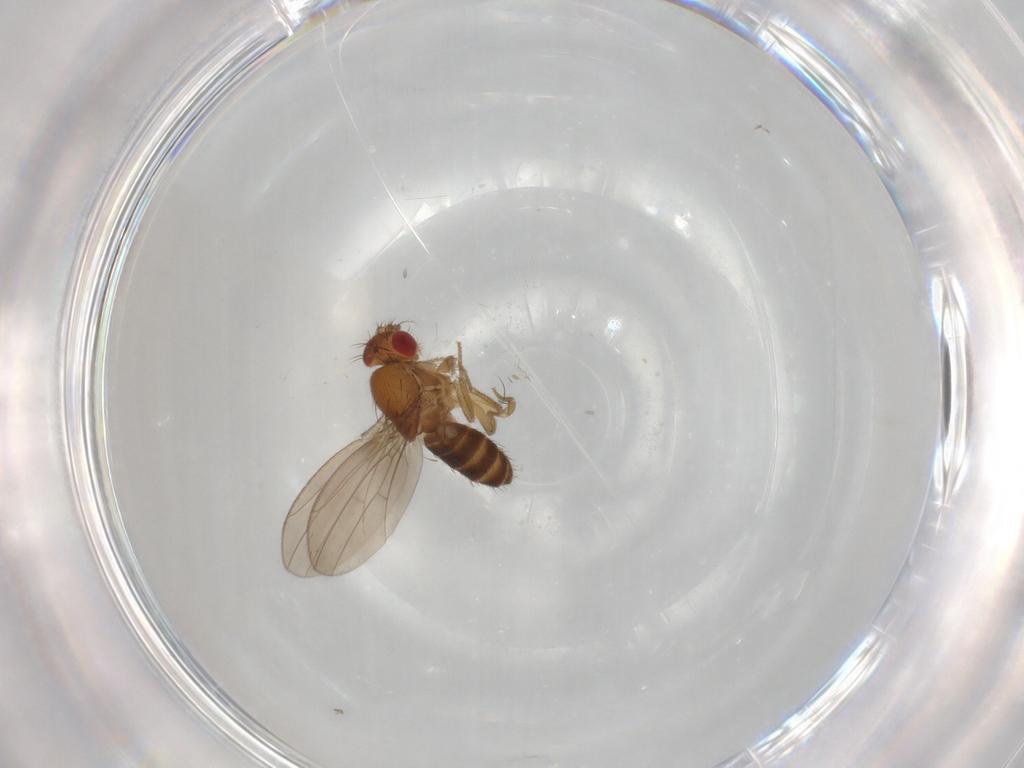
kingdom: Animalia
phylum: Arthropoda
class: Insecta
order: Diptera
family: Drosophilidae
